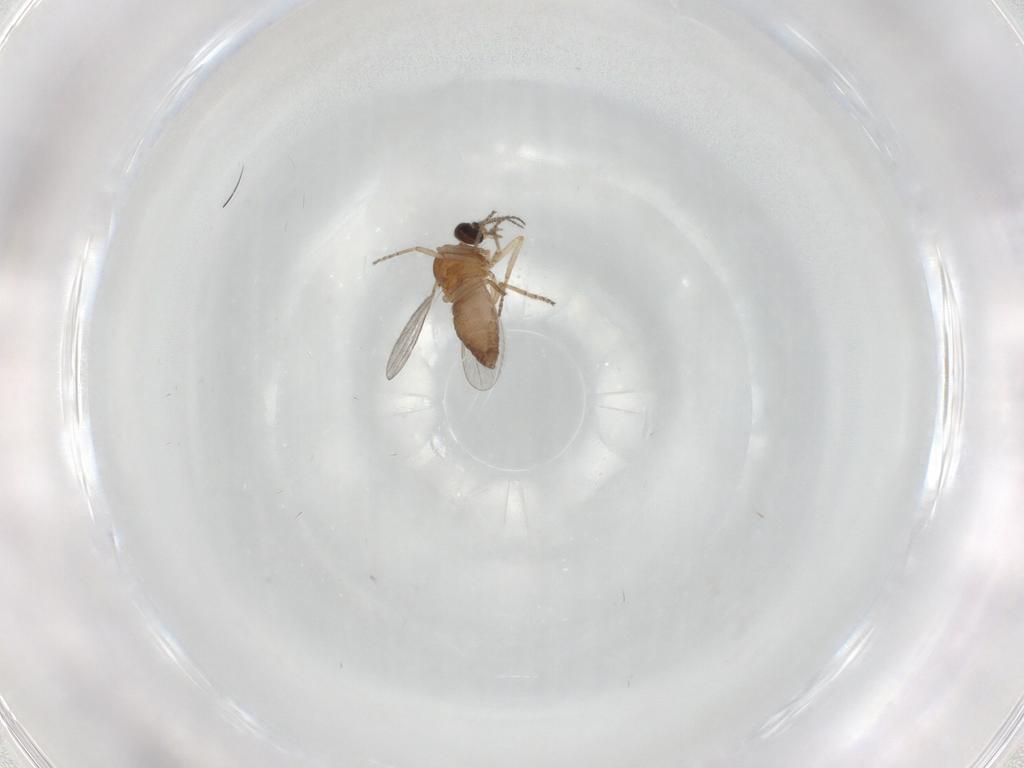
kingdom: Animalia
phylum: Arthropoda
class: Insecta
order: Diptera
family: Ceratopogonidae
